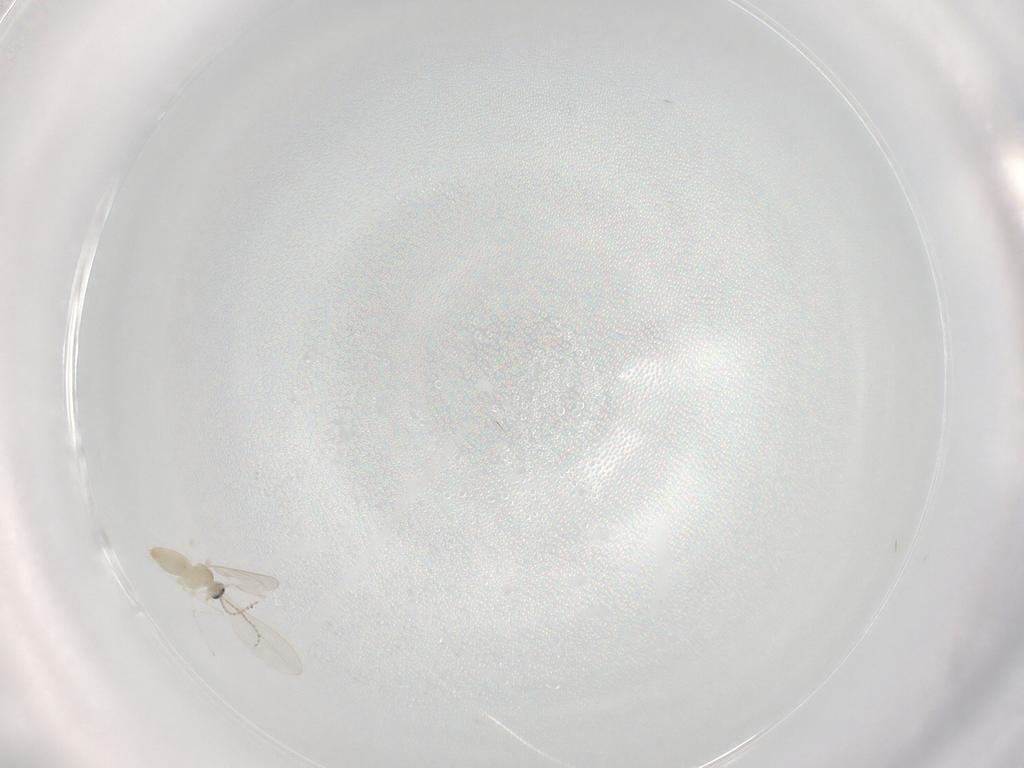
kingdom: Animalia
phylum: Arthropoda
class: Insecta
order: Diptera
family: Cecidomyiidae
